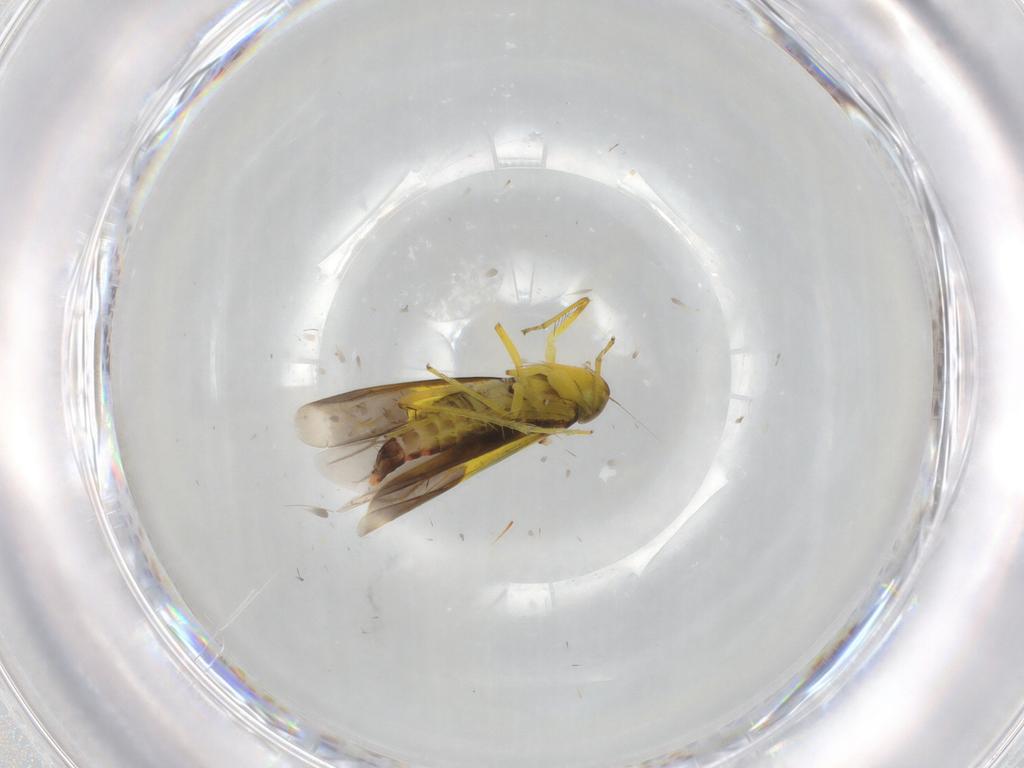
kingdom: Animalia
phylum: Arthropoda
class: Insecta
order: Hemiptera
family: Cicadellidae
